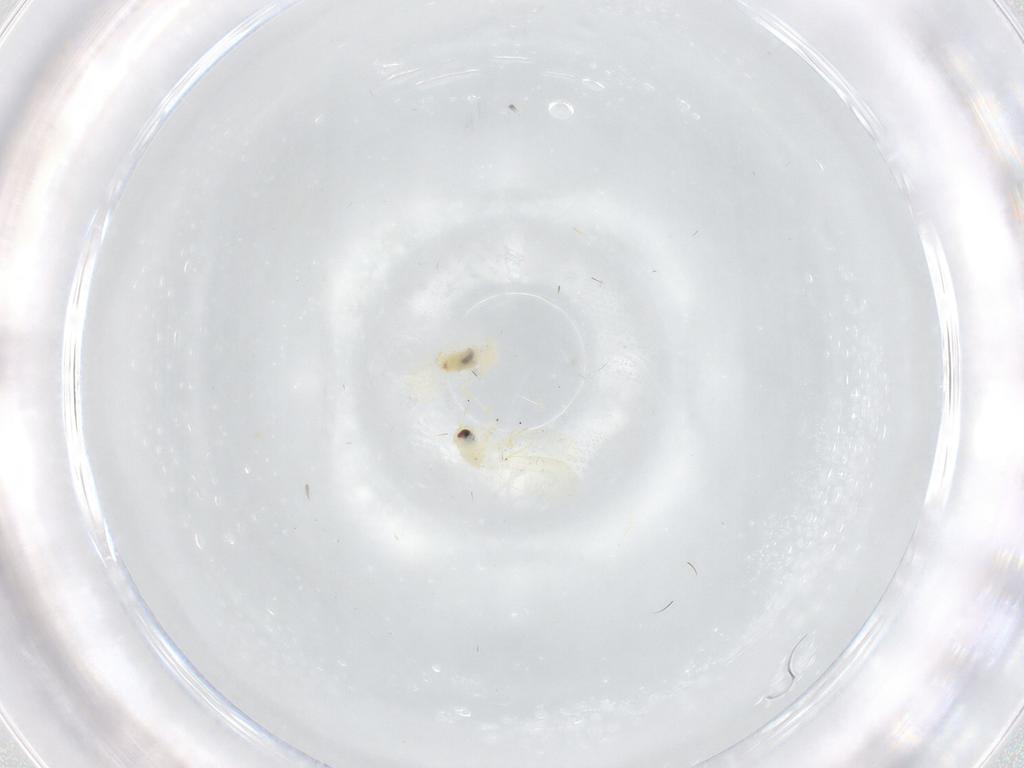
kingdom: Animalia
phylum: Arthropoda
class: Insecta
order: Hemiptera
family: Aleyrodidae
